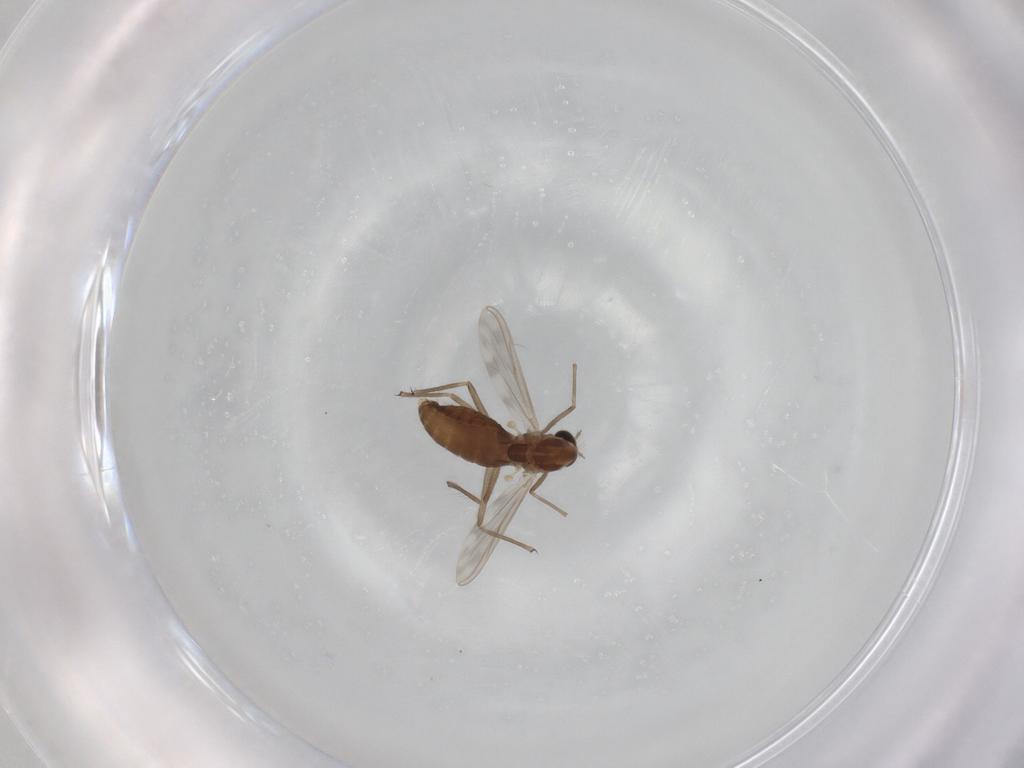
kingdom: Animalia
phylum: Arthropoda
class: Insecta
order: Diptera
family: Chironomidae
